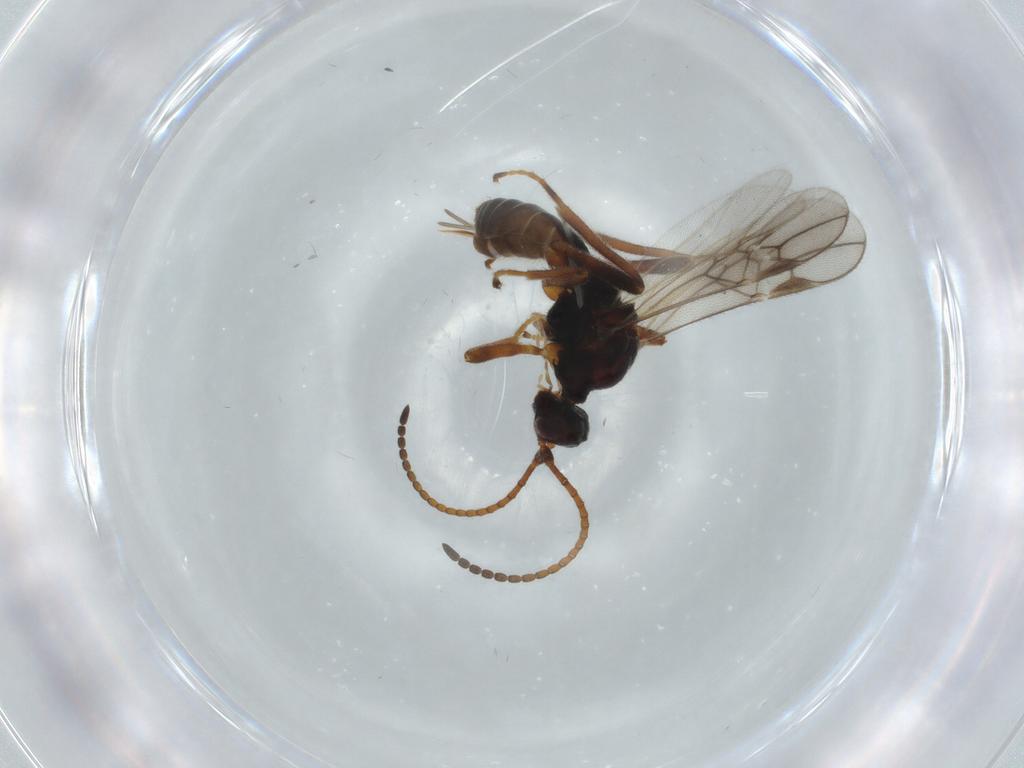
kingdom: Animalia
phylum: Arthropoda
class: Insecta
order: Hymenoptera
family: Braconidae
